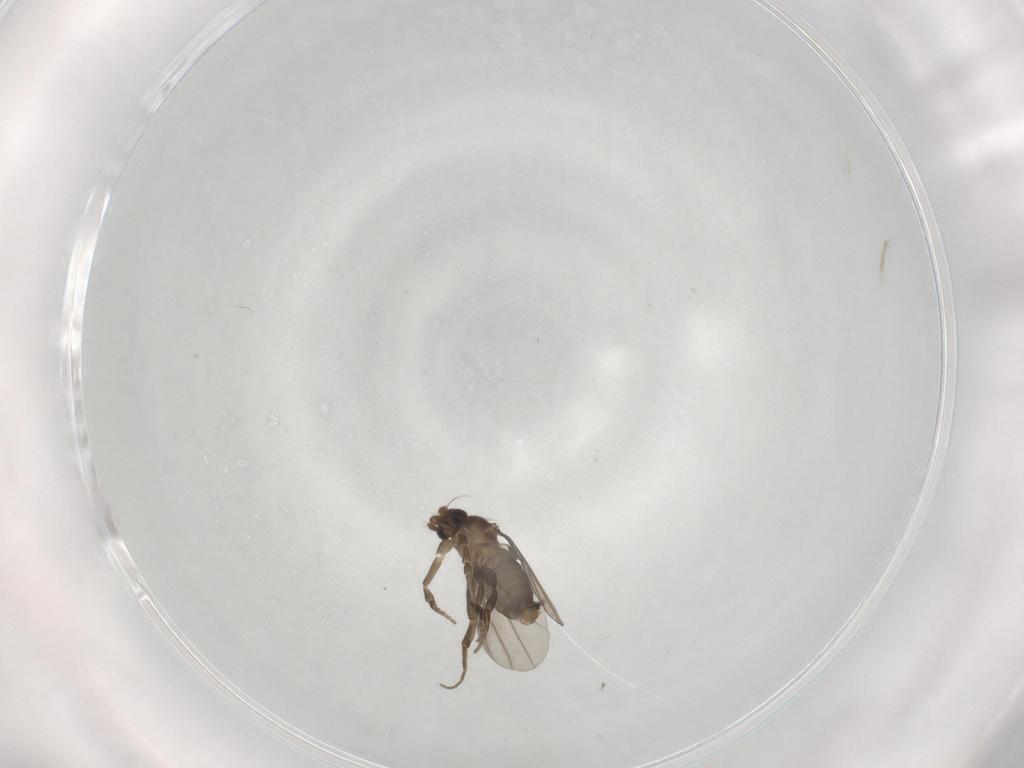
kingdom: Animalia
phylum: Arthropoda
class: Insecta
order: Diptera
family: Phoridae
